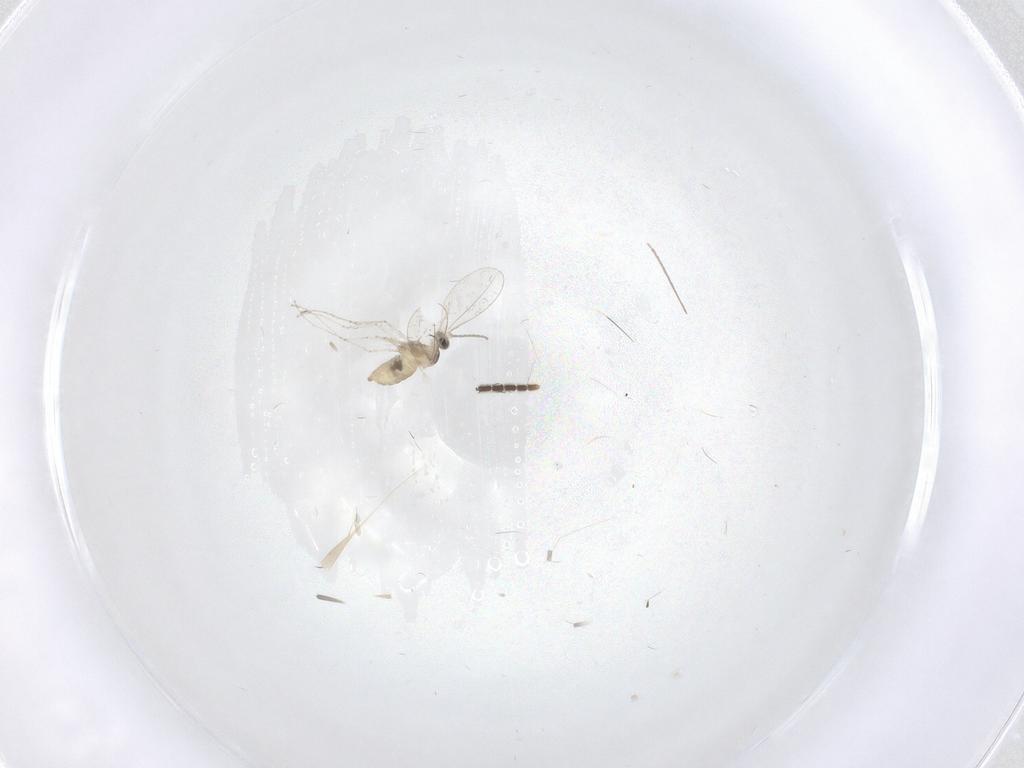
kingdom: Animalia
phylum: Arthropoda
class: Insecta
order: Diptera
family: Cecidomyiidae
